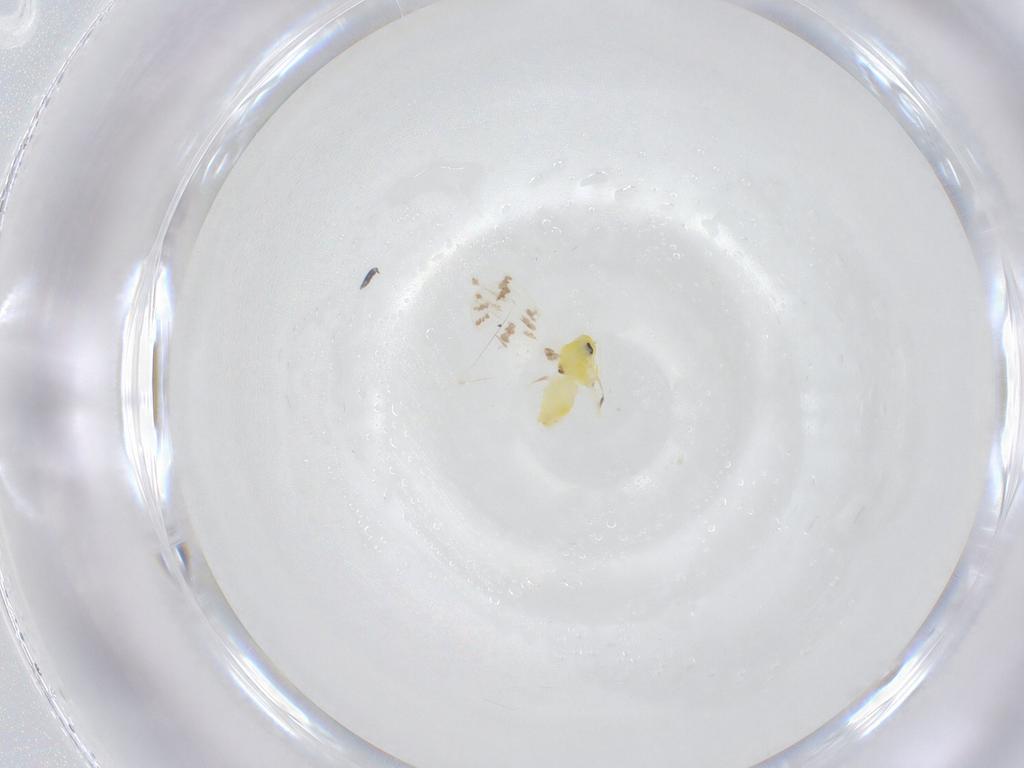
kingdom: Animalia
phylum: Arthropoda
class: Insecta
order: Hemiptera
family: Aleyrodidae
